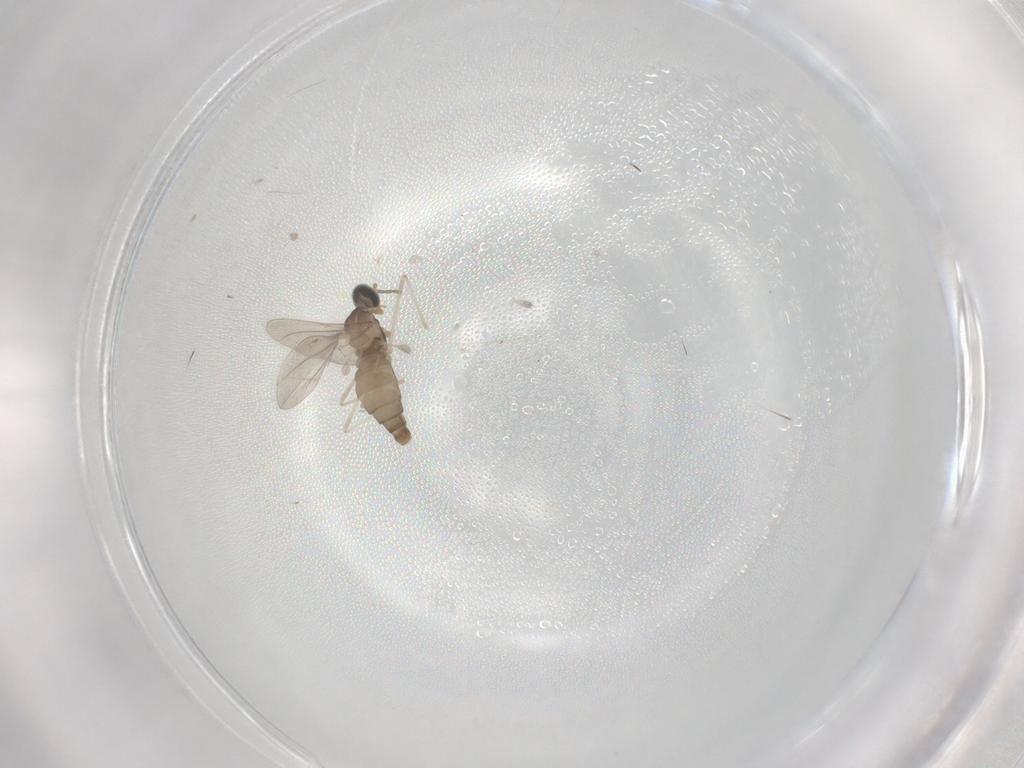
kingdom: Animalia
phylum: Arthropoda
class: Insecta
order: Diptera
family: Cecidomyiidae
